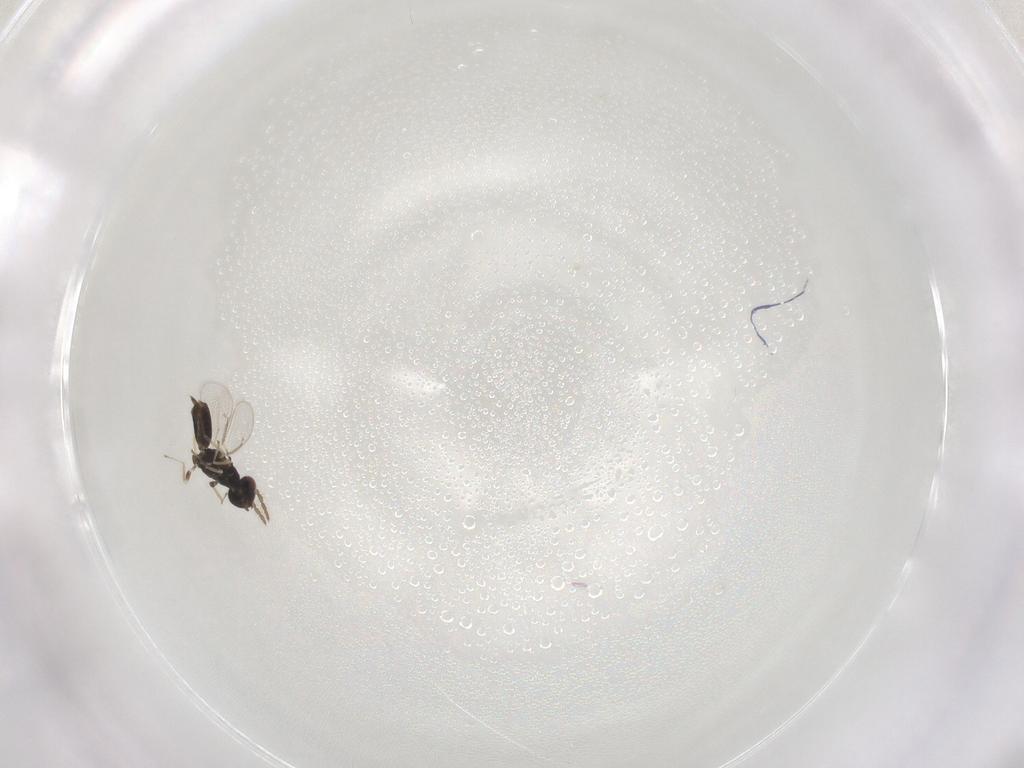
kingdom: Animalia
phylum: Arthropoda
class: Insecta
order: Hymenoptera
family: Eulophidae
